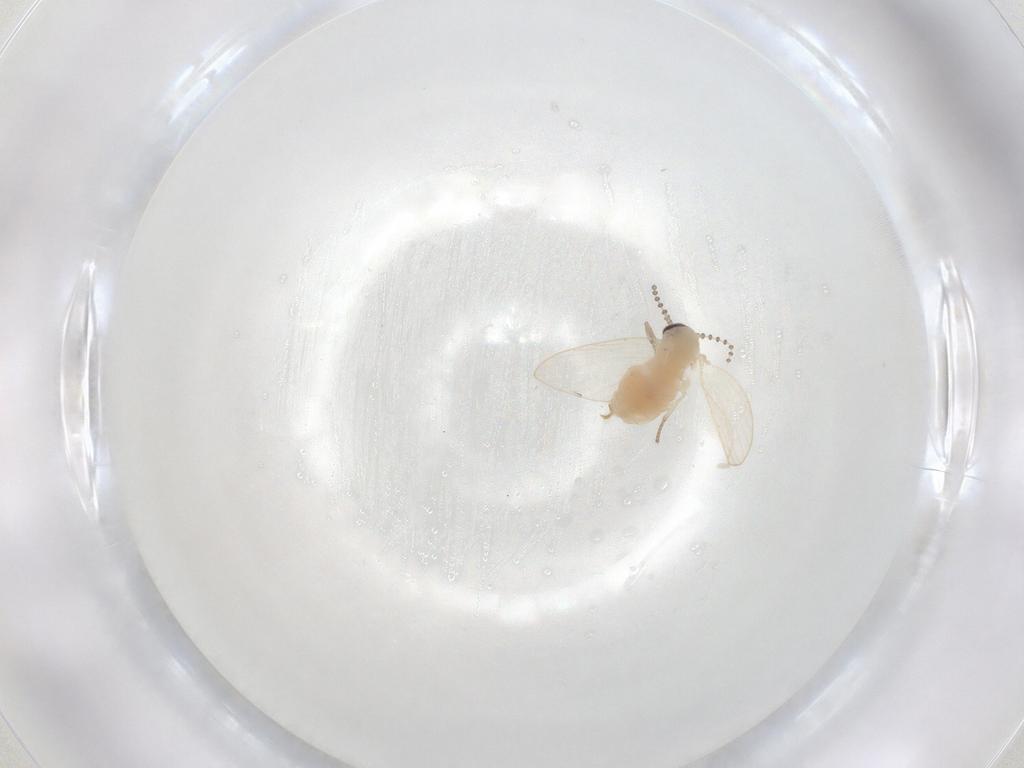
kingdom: Animalia
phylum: Arthropoda
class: Insecta
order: Diptera
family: Psychodidae
